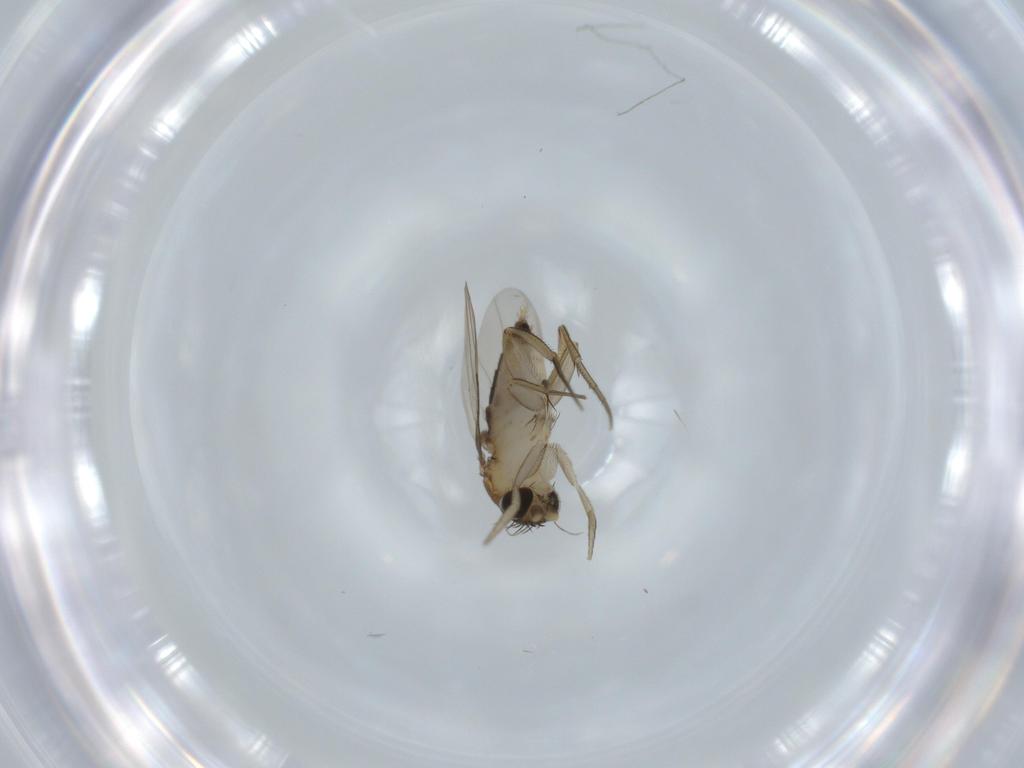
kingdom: Animalia
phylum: Arthropoda
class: Insecta
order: Diptera
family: Phoridae
